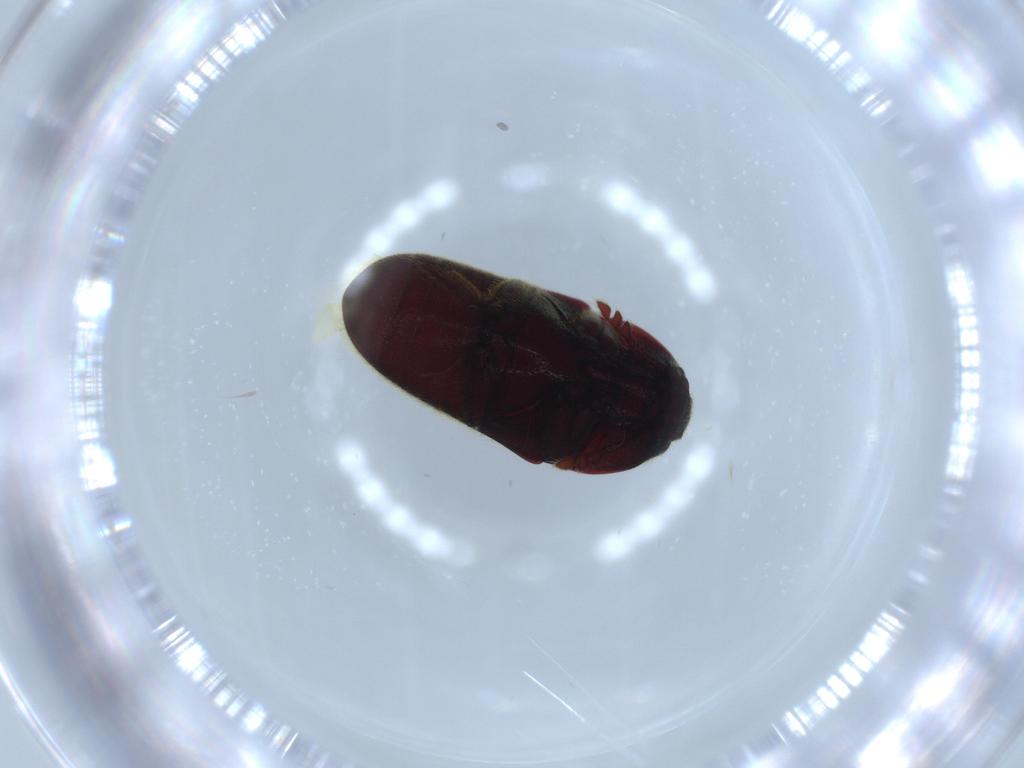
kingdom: Animalia
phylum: Arthropoda
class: Insecta
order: Coleoptera
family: Throscidae
